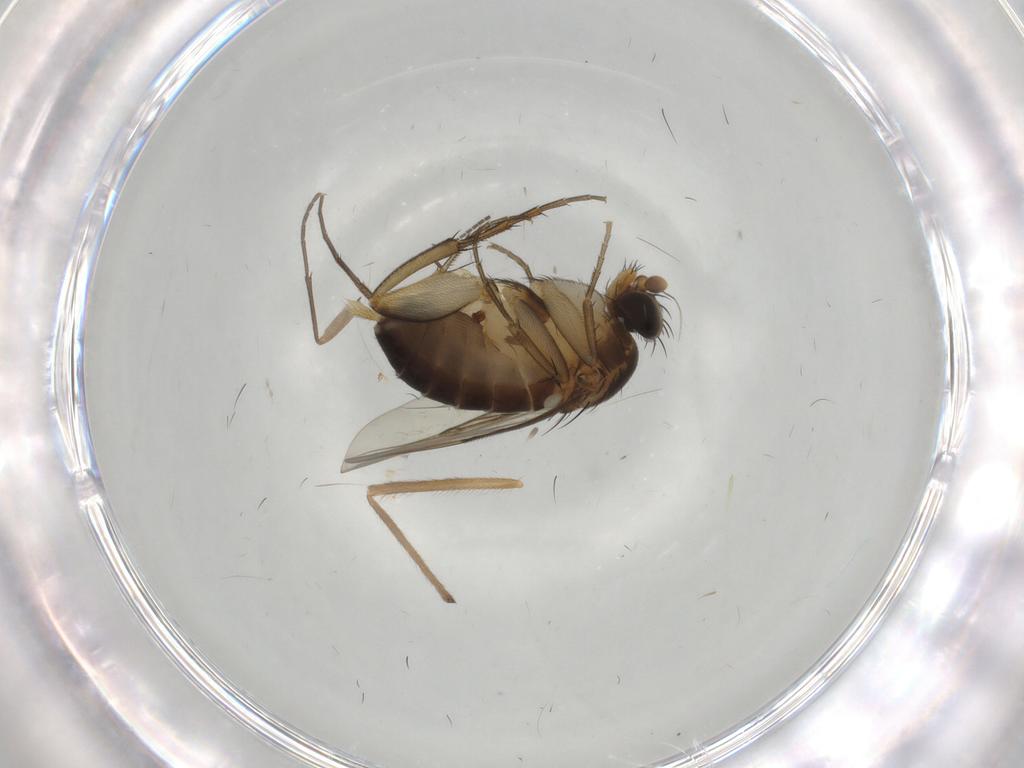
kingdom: Animalia
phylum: Arthropoda
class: Insecta
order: Diptera
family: Phoridae
